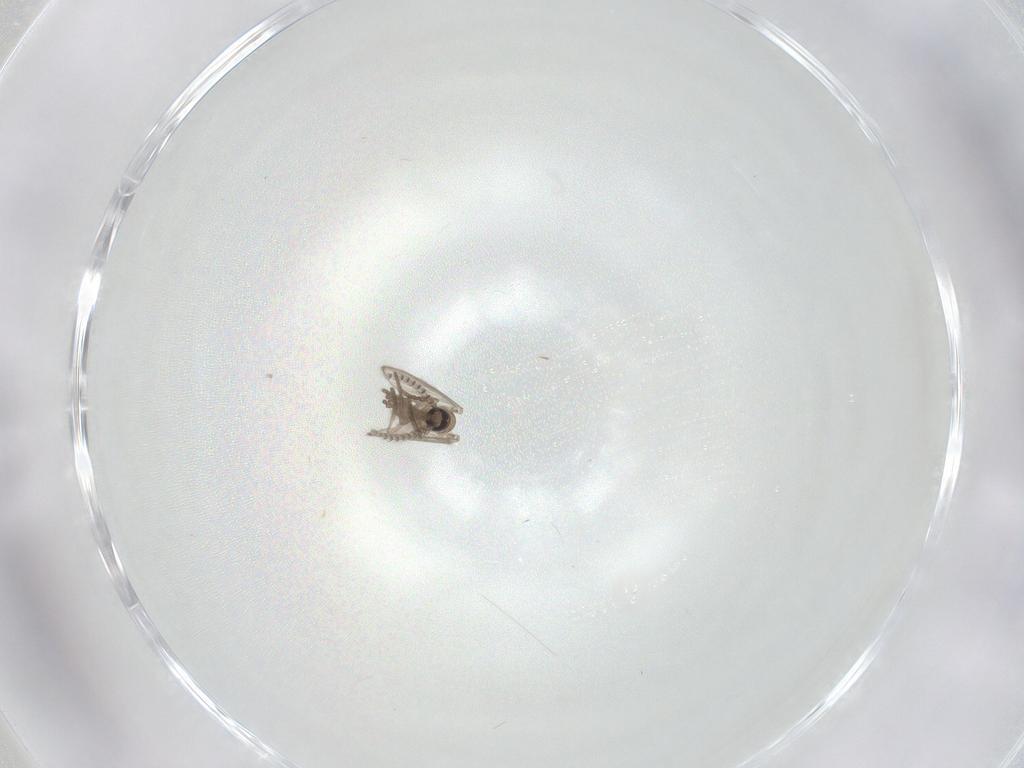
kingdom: Animalia
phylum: Arthropoda
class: Insecta
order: Diptera
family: Psychodidae
